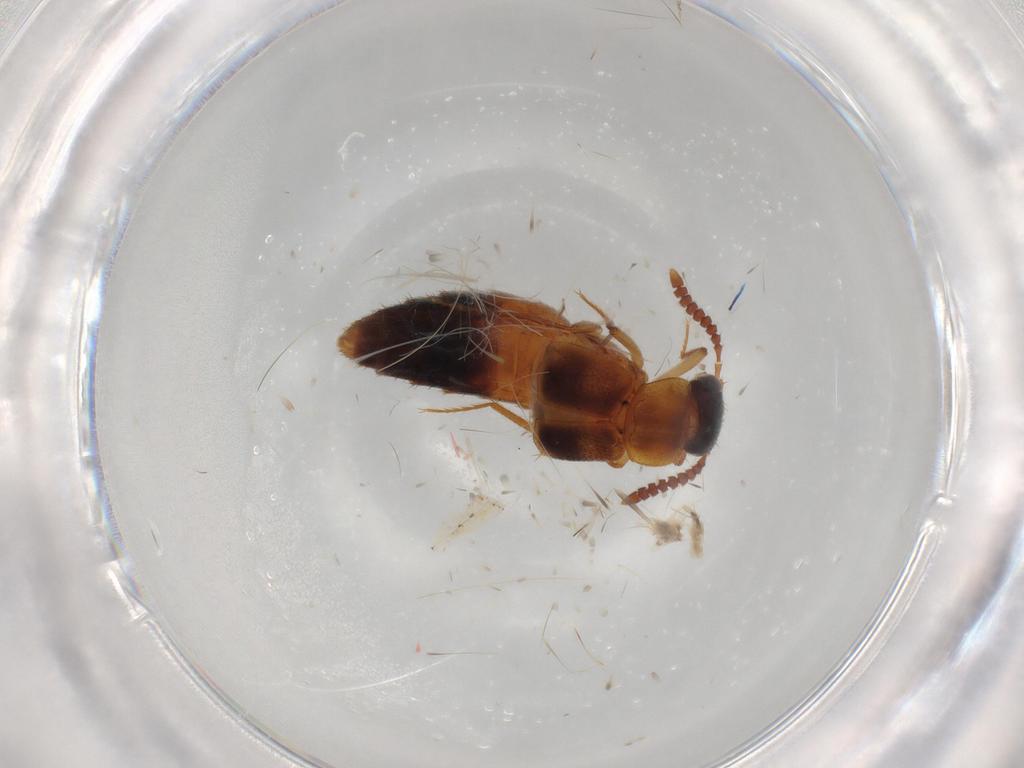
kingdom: Animalia
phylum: Arthropoda
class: Insecta
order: Coleoptera
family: Staphylinidae
